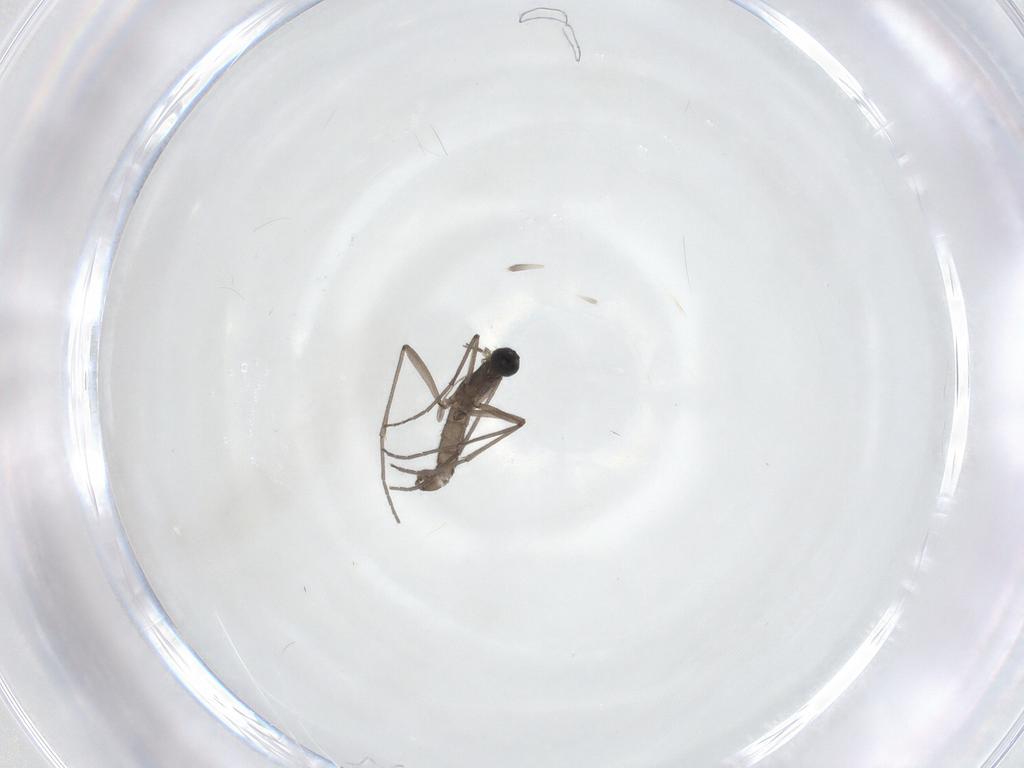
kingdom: Animalia
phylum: Arthropoda
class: Insecta
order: Diptera
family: Sciaridae
